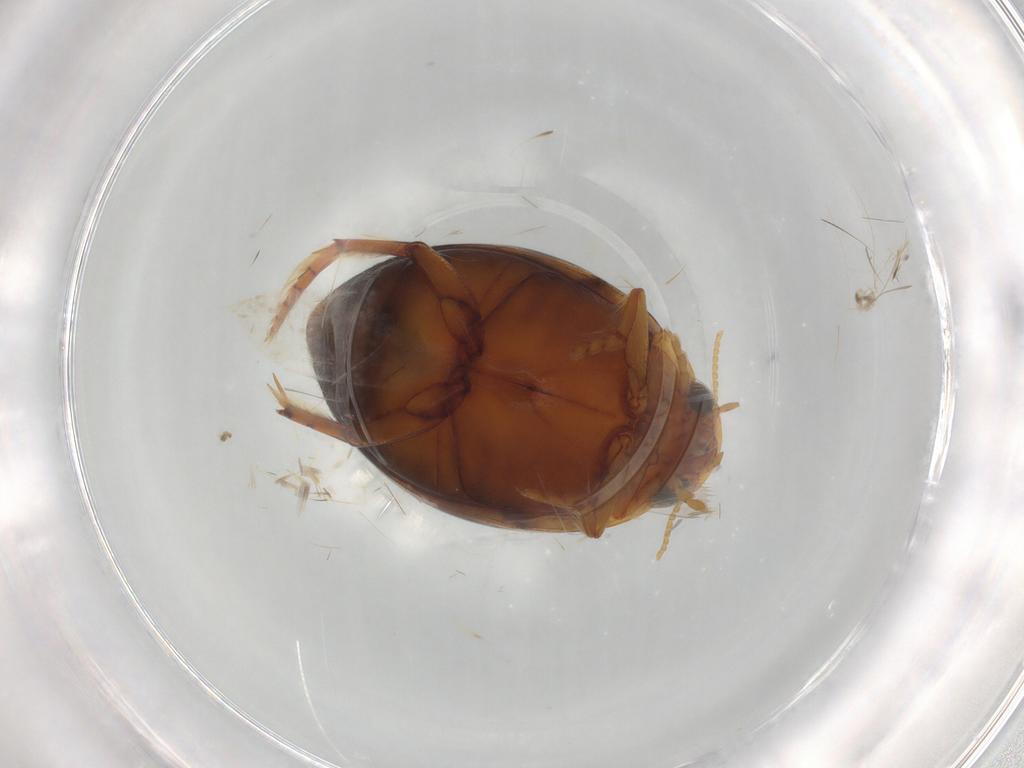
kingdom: Animalia
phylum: Arthropoda
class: Insecta
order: Coleoptera
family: Carabidae
